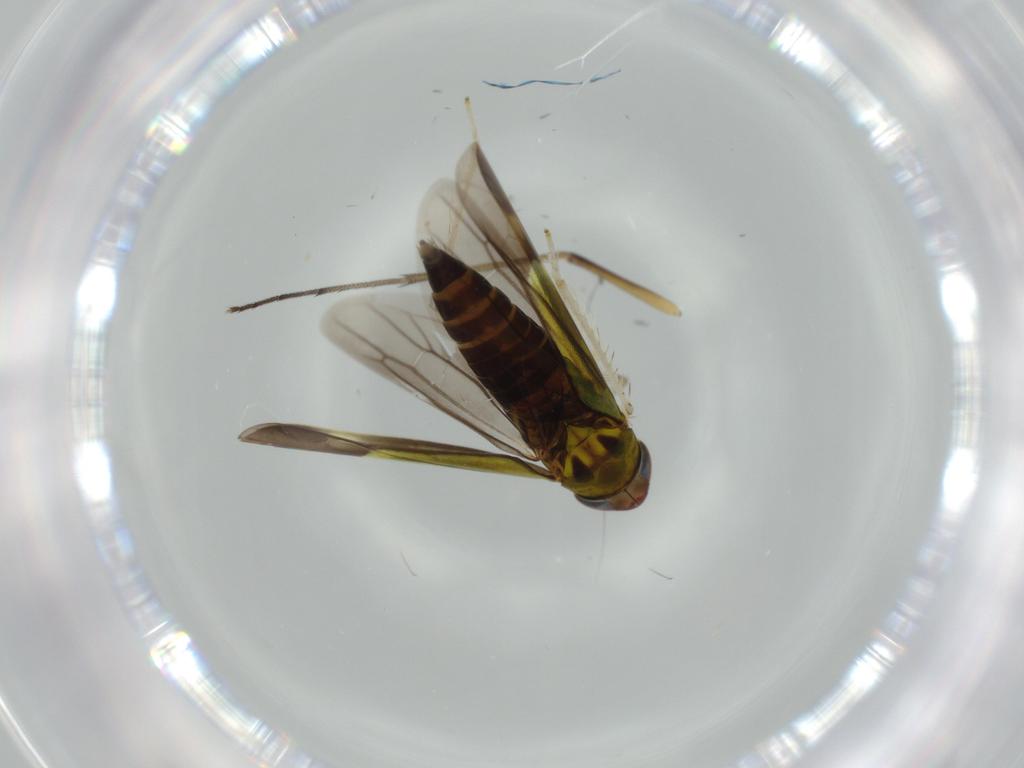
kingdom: Animalia
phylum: Arthropoda
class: Insecta
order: Hemiptera
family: Cicadellidae
